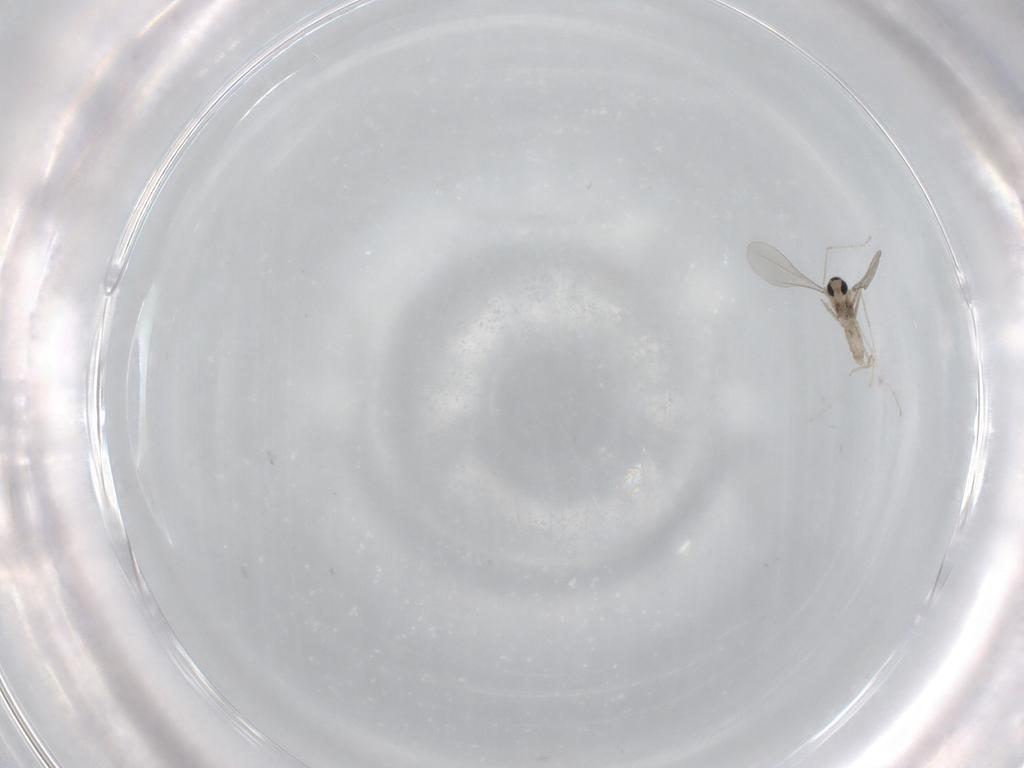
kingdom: Animalia
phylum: Arthropoda
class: Insecta
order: Diptera
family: Cecidomyiidae
